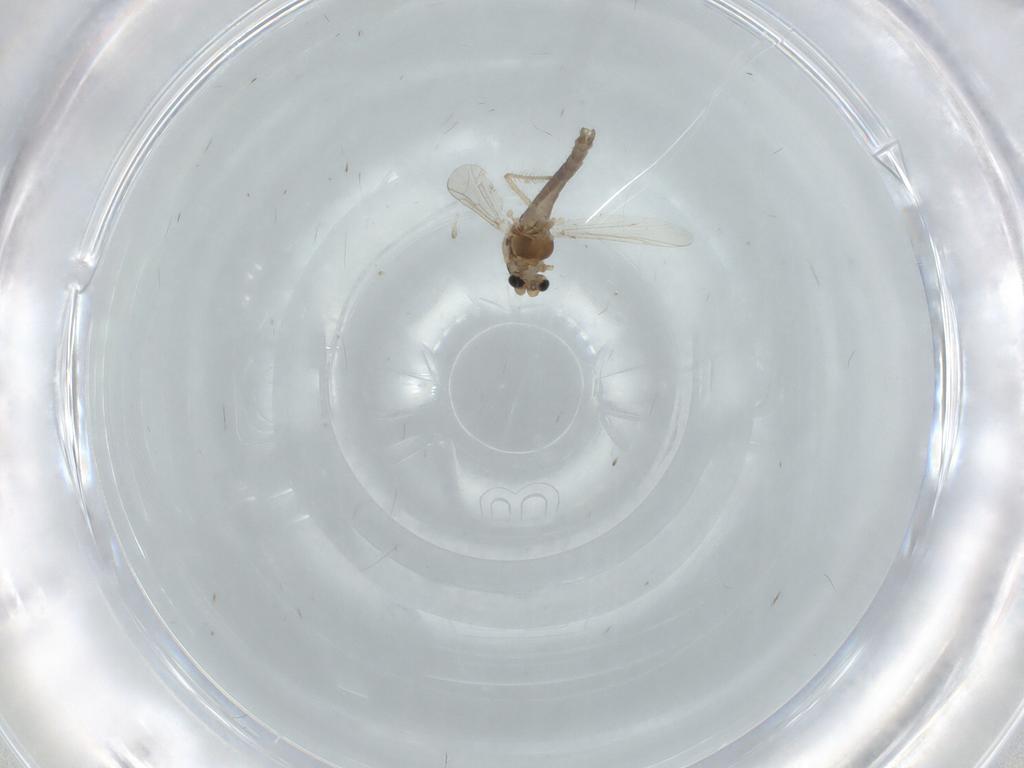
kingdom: Animalia
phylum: Arthropoda
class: Insecta
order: Diptera
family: Chironomidae
